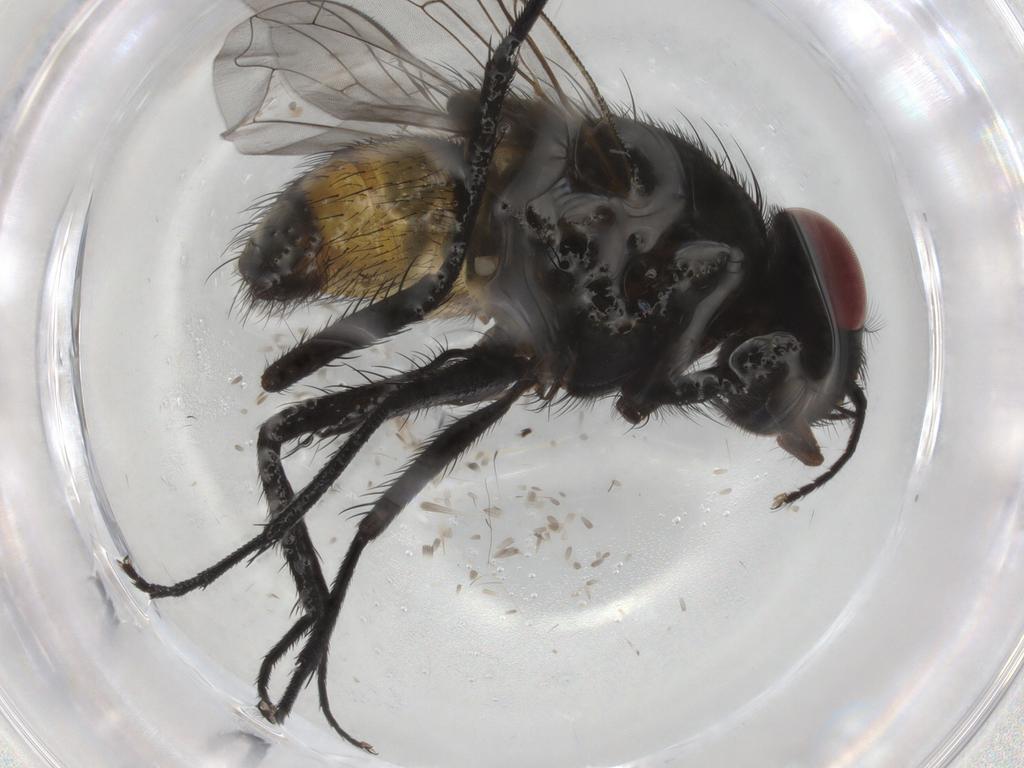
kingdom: Animalia
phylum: Arthropoda
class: Insecta
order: Diptera
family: Muscidae
